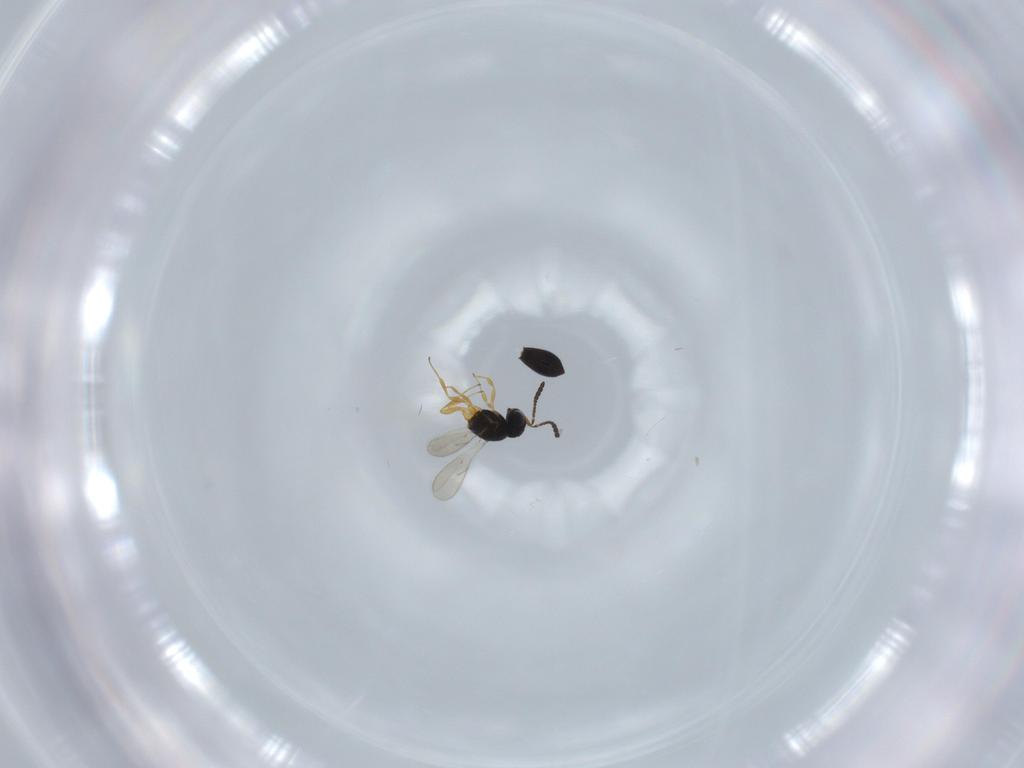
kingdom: Animalia
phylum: Arthropoda
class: Insecta
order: Hymenoptera
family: Scelionidae
